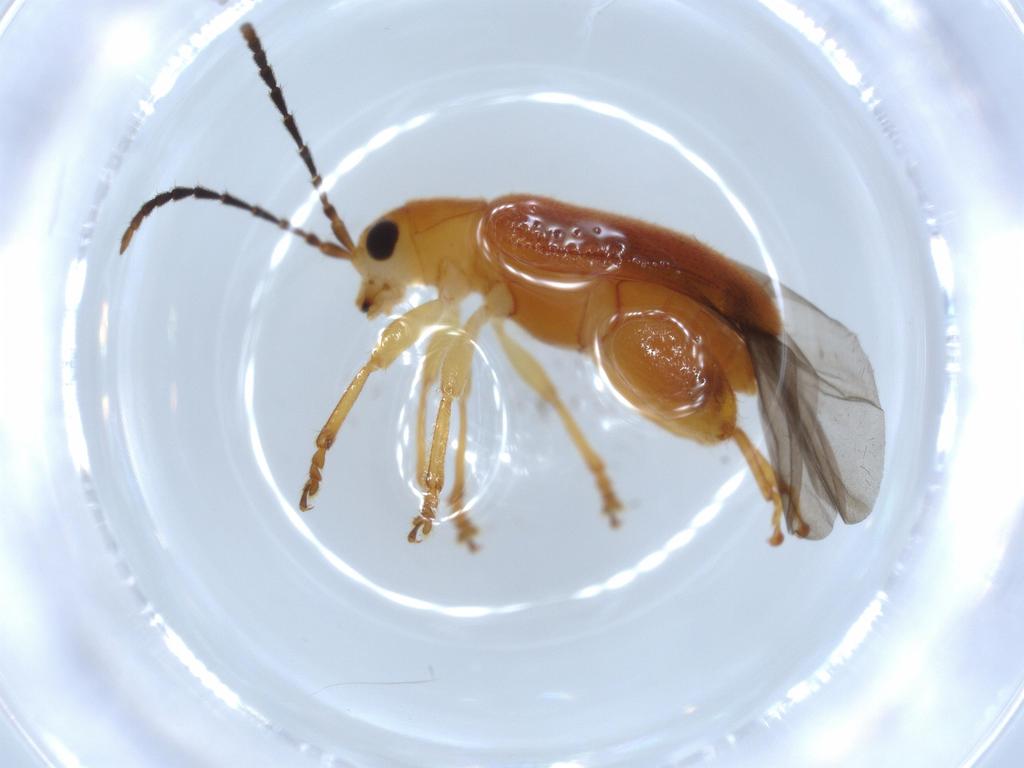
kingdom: Animalia
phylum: Arthropoda
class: Insecta
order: Coleoptera
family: Chrysomelidae
